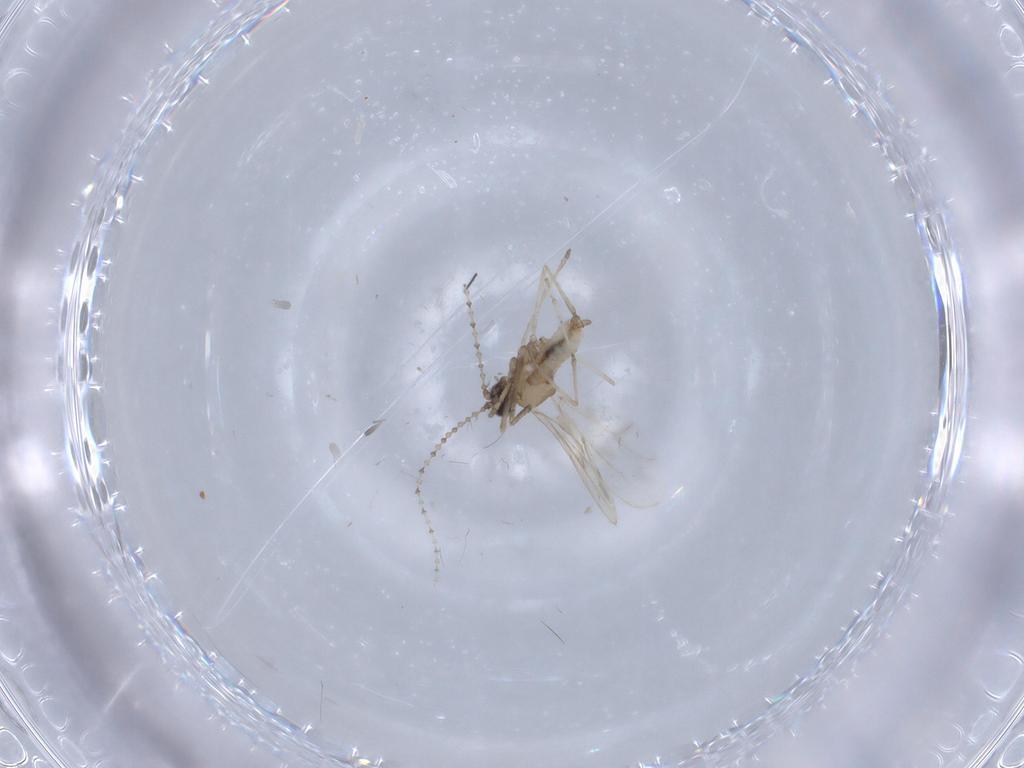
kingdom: Animalia
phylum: Arthropoda
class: Insecta
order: Diptera
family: Cecidomyiidae
